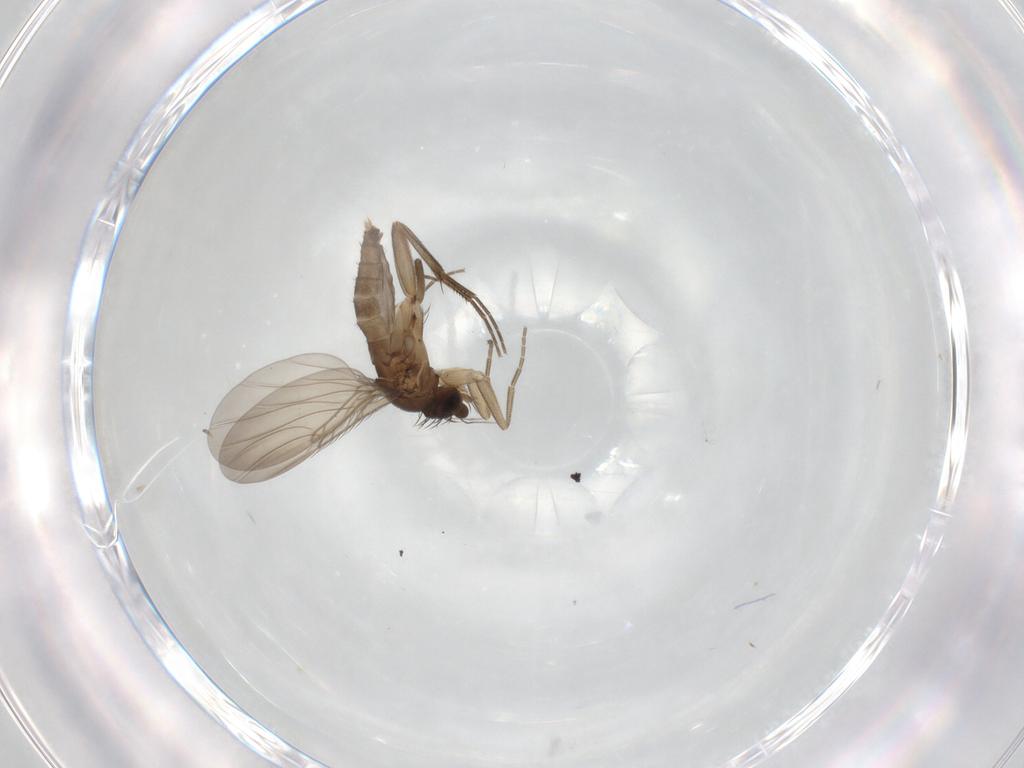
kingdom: Animalia
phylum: Arthropoda
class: Insecta
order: Diptera
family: Phoridae
